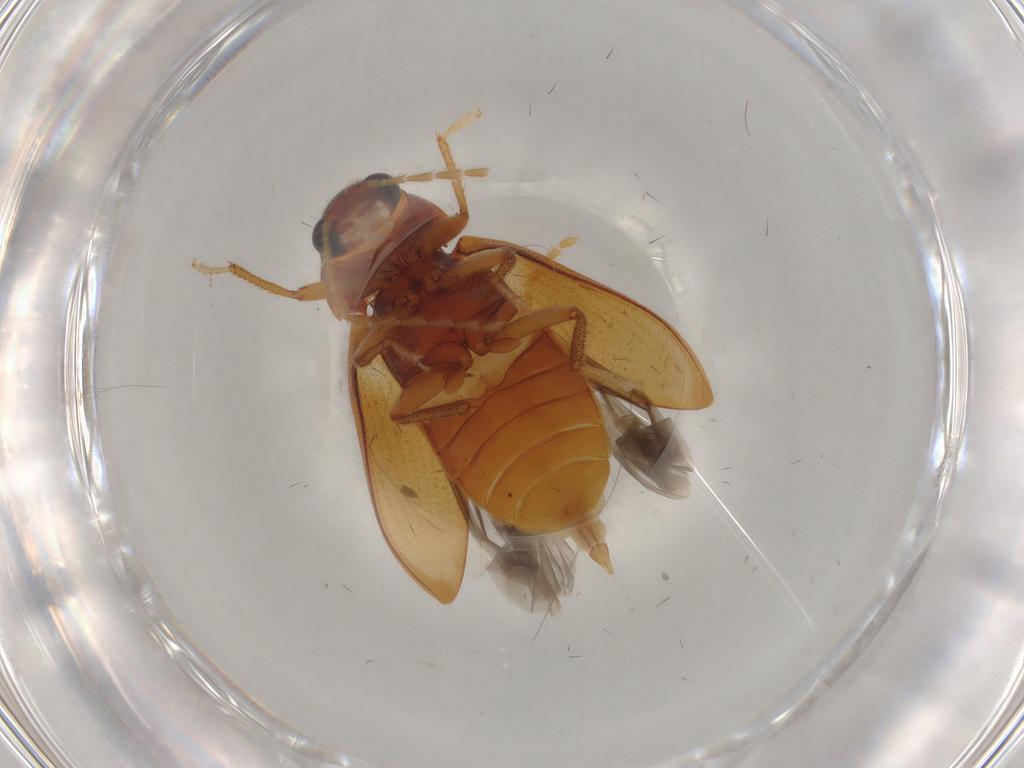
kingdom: Animalia
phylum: Arthropoda
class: Insecta
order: Coleoptera
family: Ptilodactylidae
